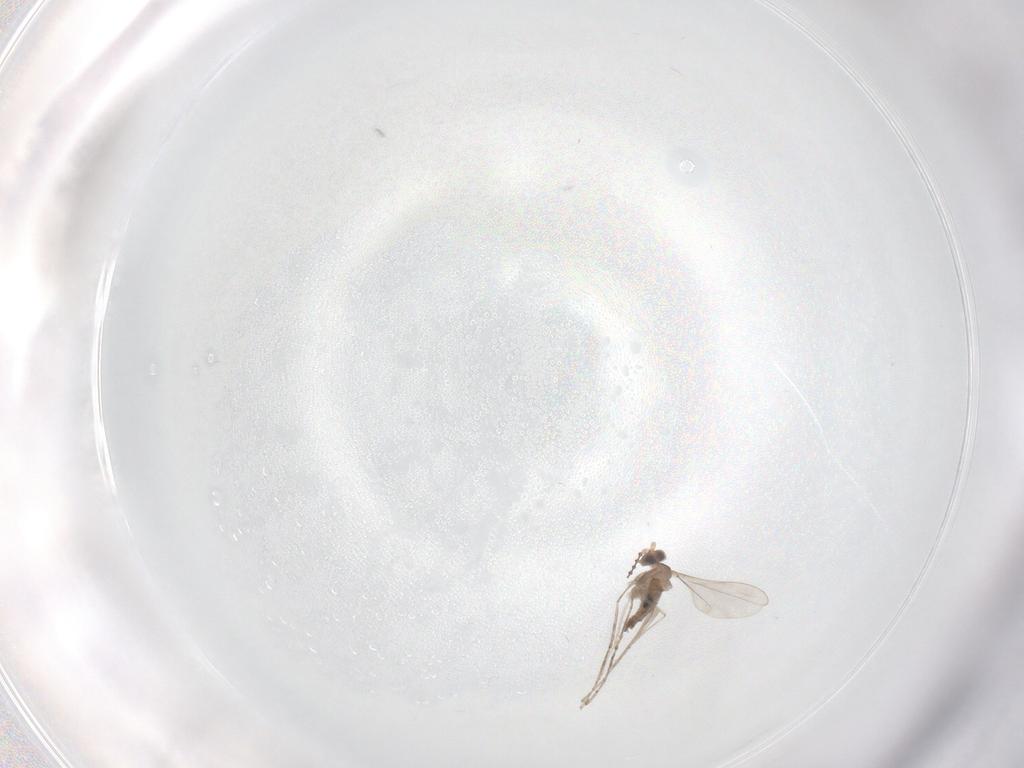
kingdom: Animalia
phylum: Arthropoda
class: Insecta
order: Diptera
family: Cecidomyiidae
